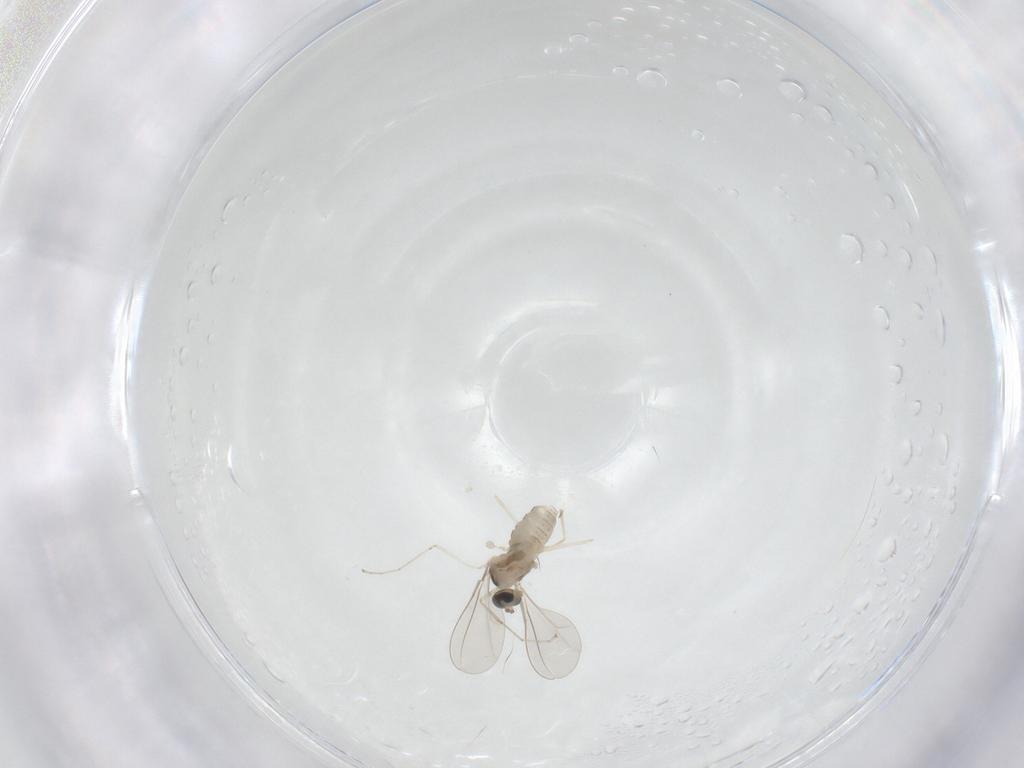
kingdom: Animalia
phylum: Arthropoda
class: Insecta
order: Diptera
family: Cecidomyiidae
